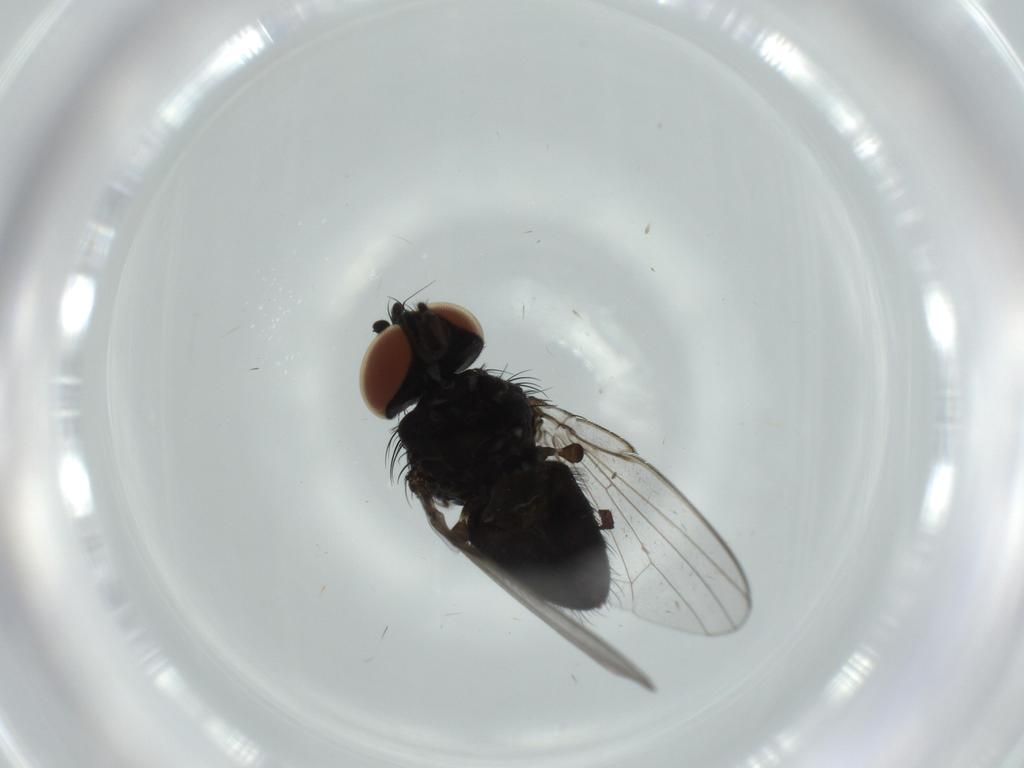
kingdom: Animalia
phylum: Arthropoda
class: Insecta
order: Diptera
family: Milichiidae
